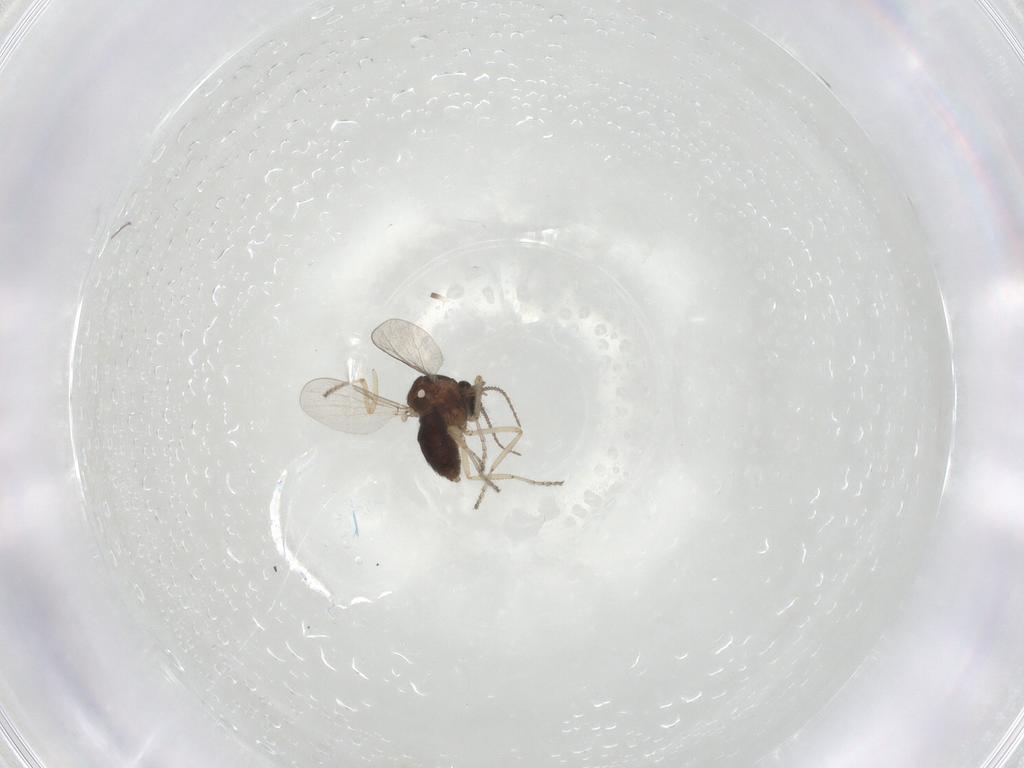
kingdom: Animalia
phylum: Arthropoda
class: Insecta
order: Diptera
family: Ceratopogonidae
